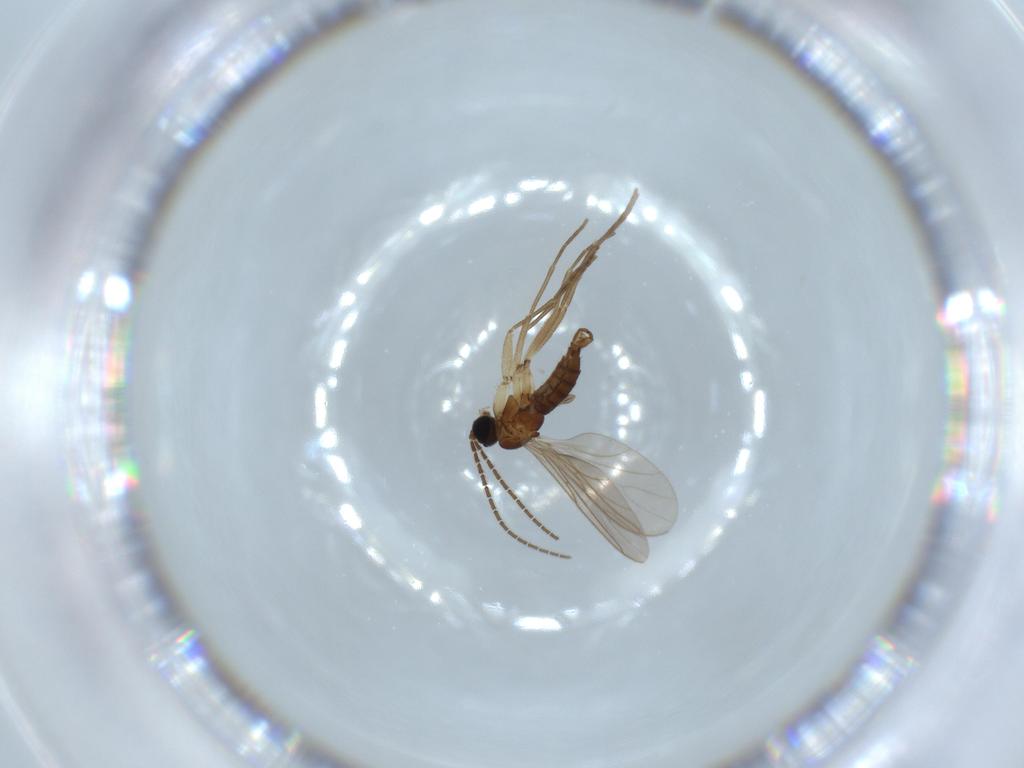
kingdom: Animalia
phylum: Arthropoda
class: Insecta
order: Diptera
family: Sciaridae
